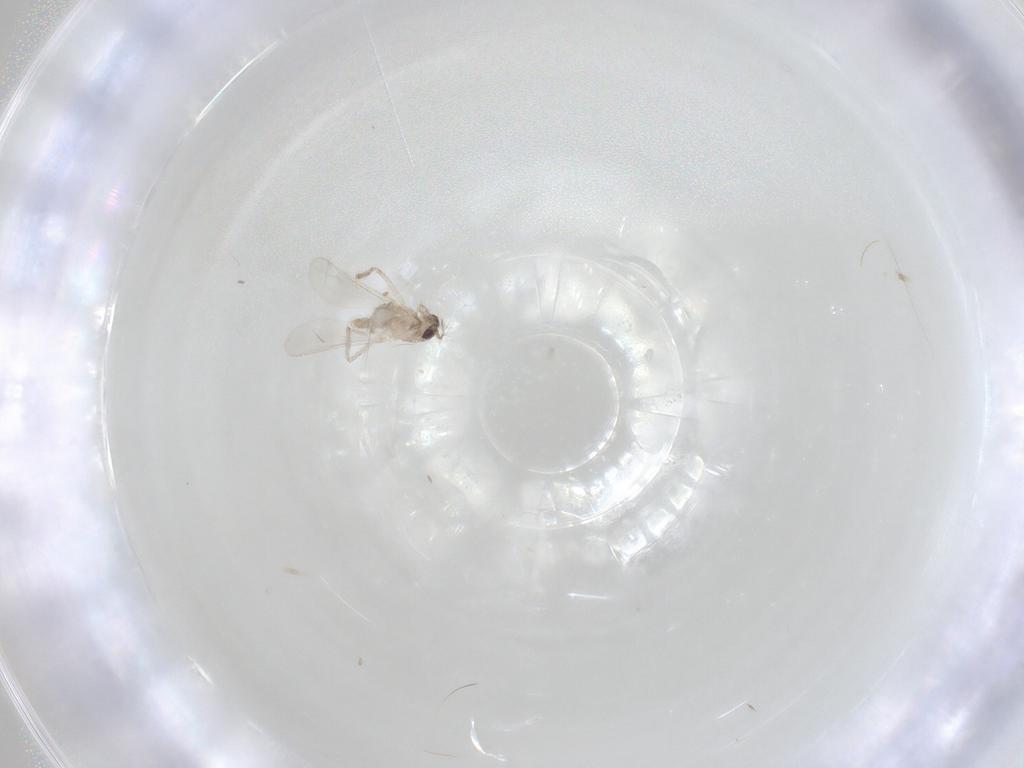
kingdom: Animalia
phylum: Arthropoda
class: Insecta
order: Diptera
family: Chironomidae
